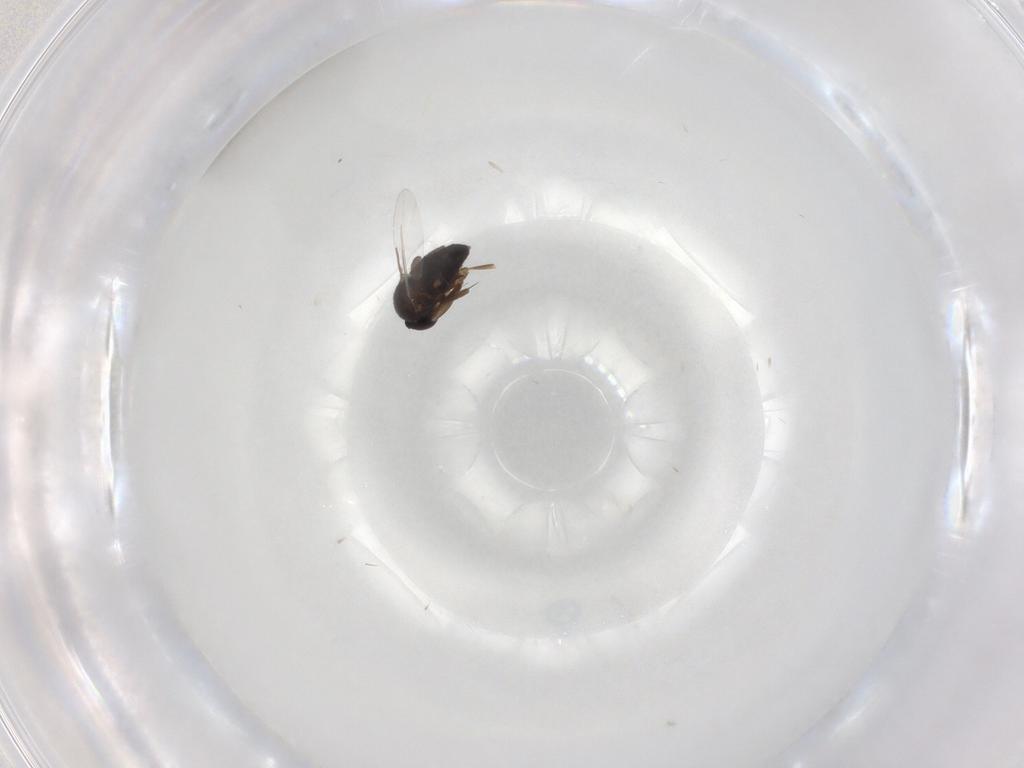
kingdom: Animalia
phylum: Arthropoda
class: Insecta
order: Diptera
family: Phoridae
